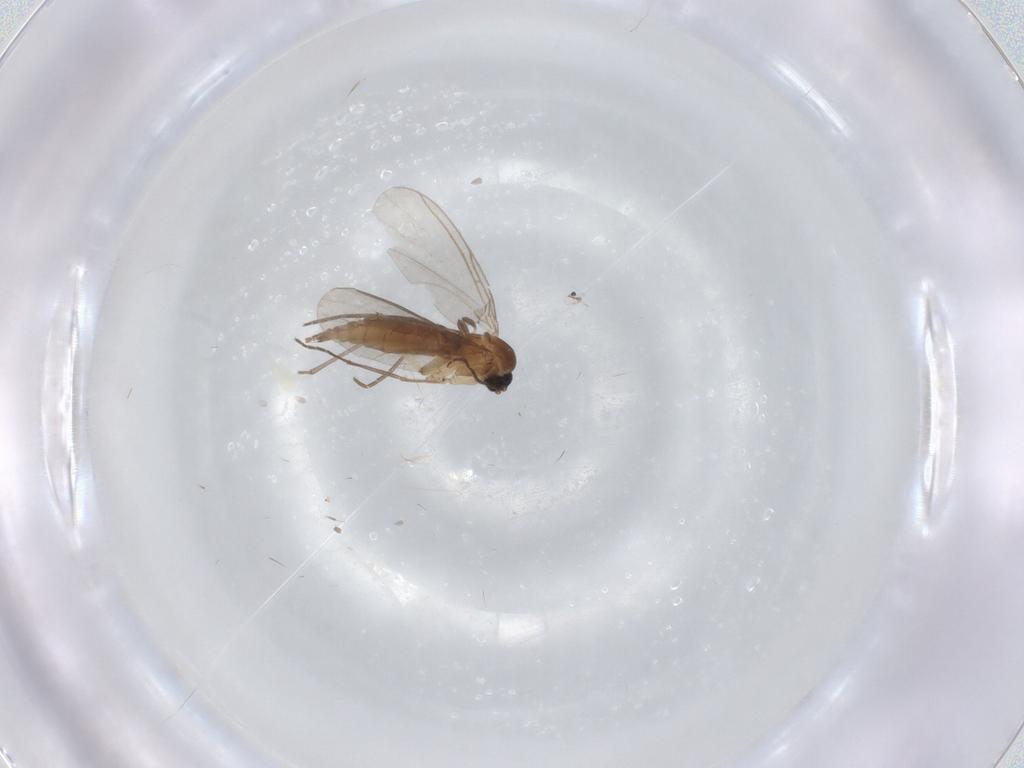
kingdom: Animalia
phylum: Arthropoda
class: Insecta
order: Diptera
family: Sciaridae
